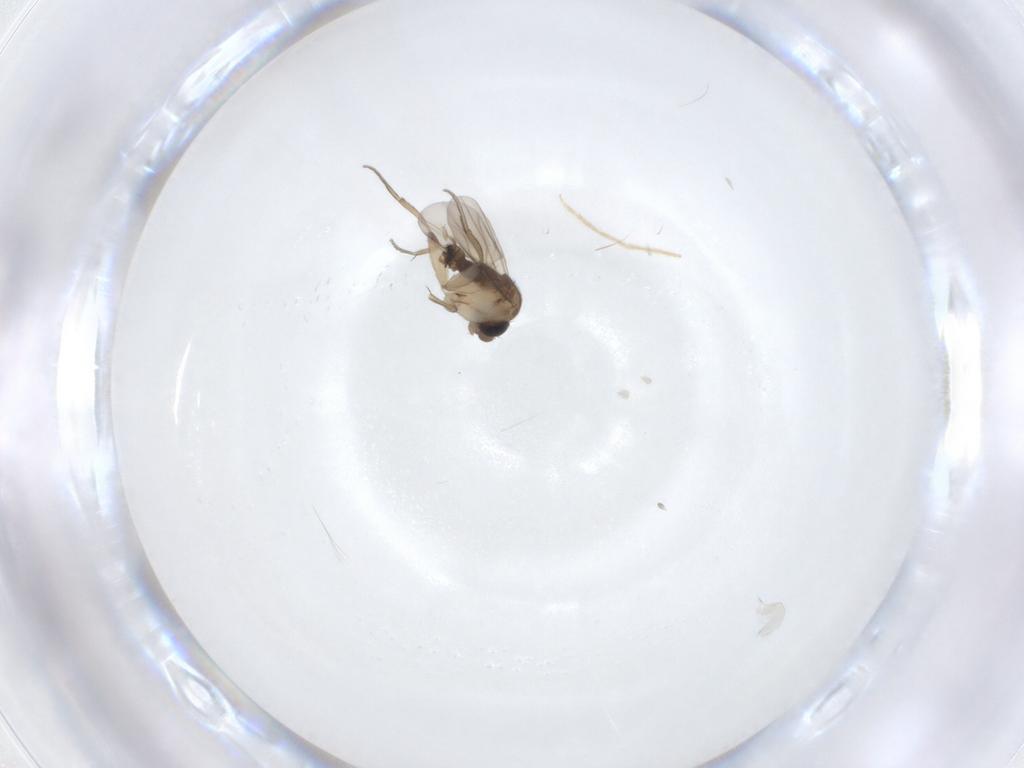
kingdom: Animalia
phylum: Arthropoda
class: Insecta
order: Diptera
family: Phoridae
